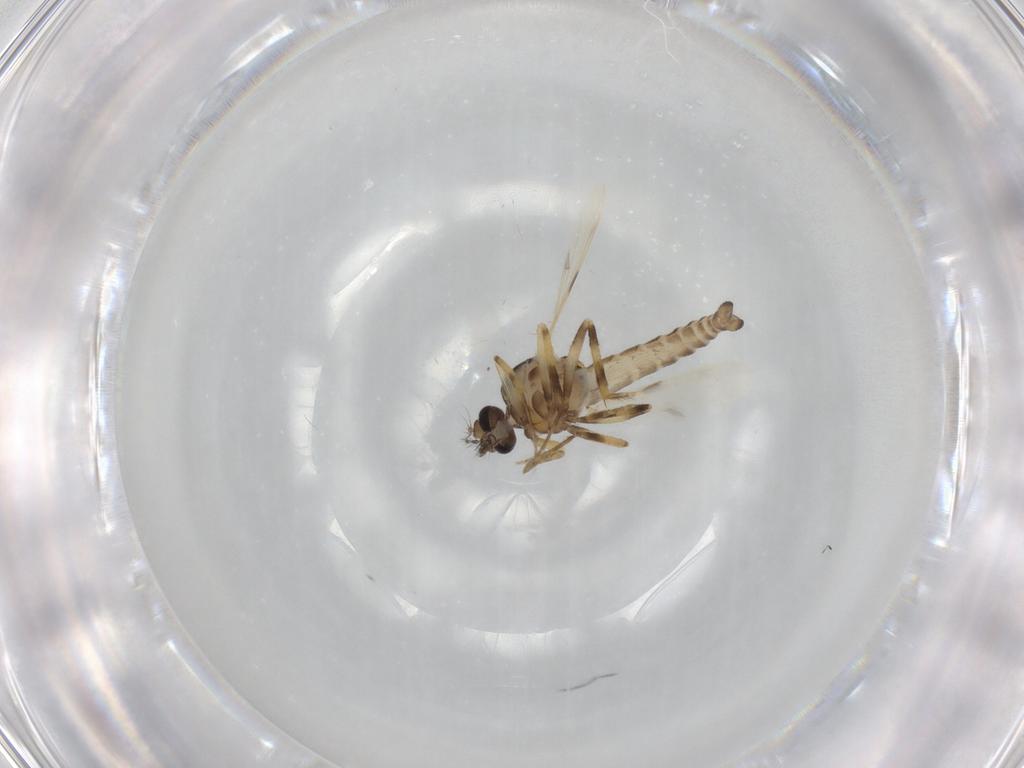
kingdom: Animalia
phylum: Arthropoda
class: Insecta
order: Diptera
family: Ceratopogonidae
